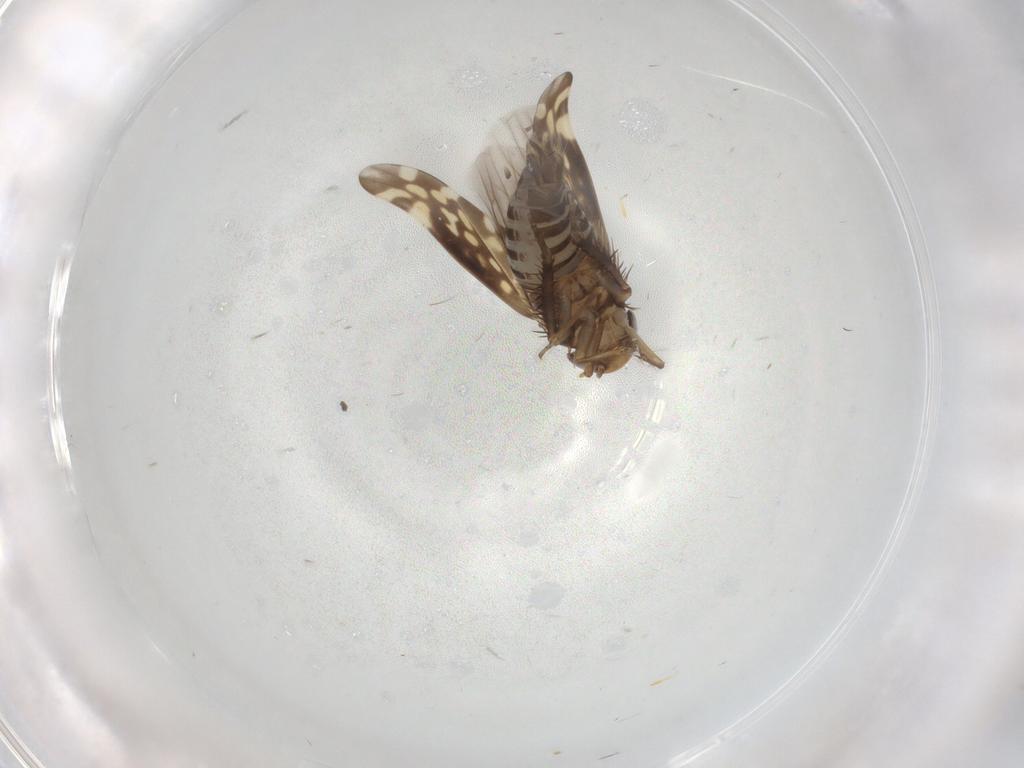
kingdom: Animalia
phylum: Arthropoda
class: Insecta
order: Hemiptera
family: Cicadellidae
